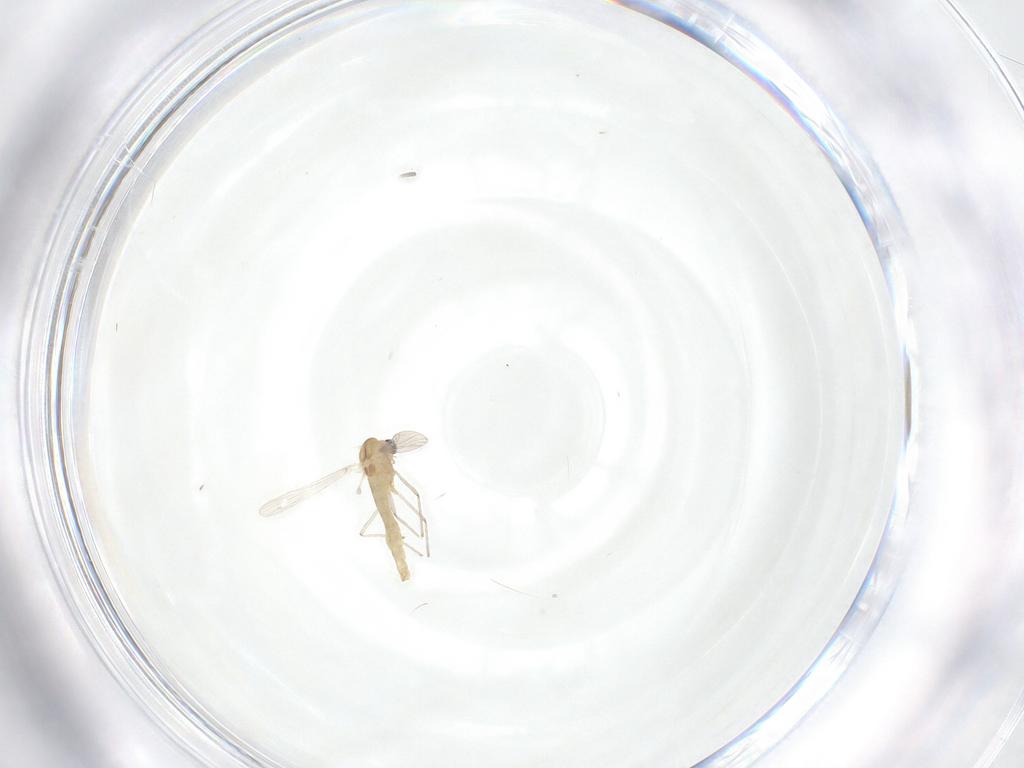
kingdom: Animalia
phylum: Arthropoda
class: Insecta
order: Diptera
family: Chironomidae
